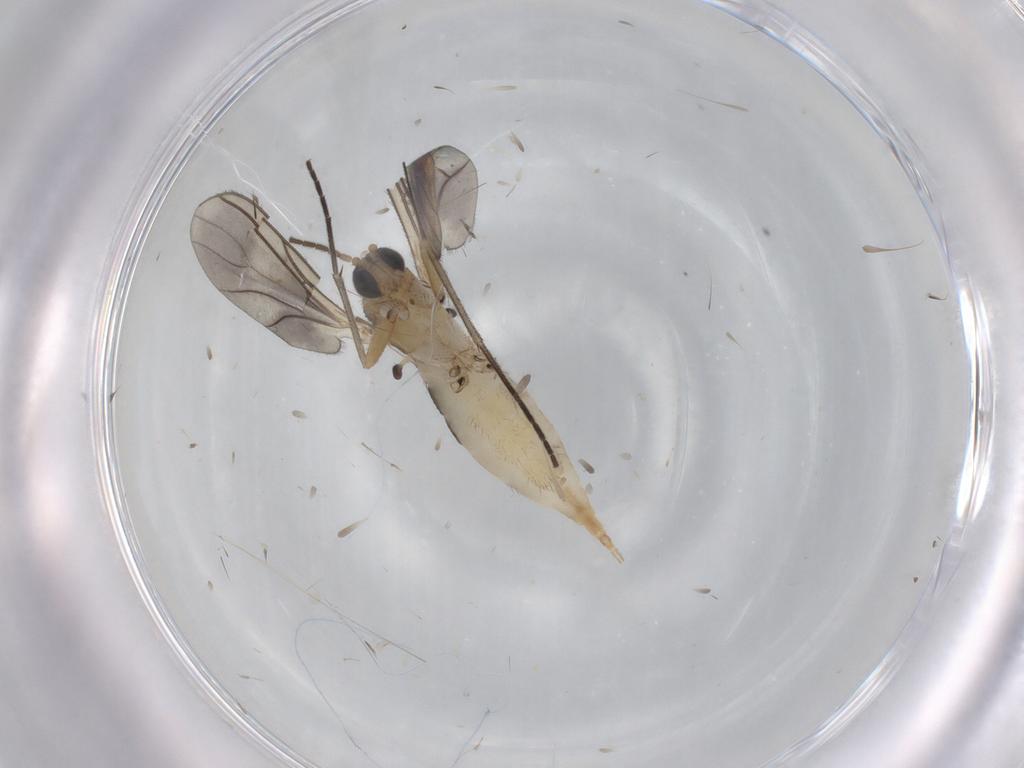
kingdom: Animalia
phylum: Arthropoda
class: Insecta
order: Diptera
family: Sciaridae
